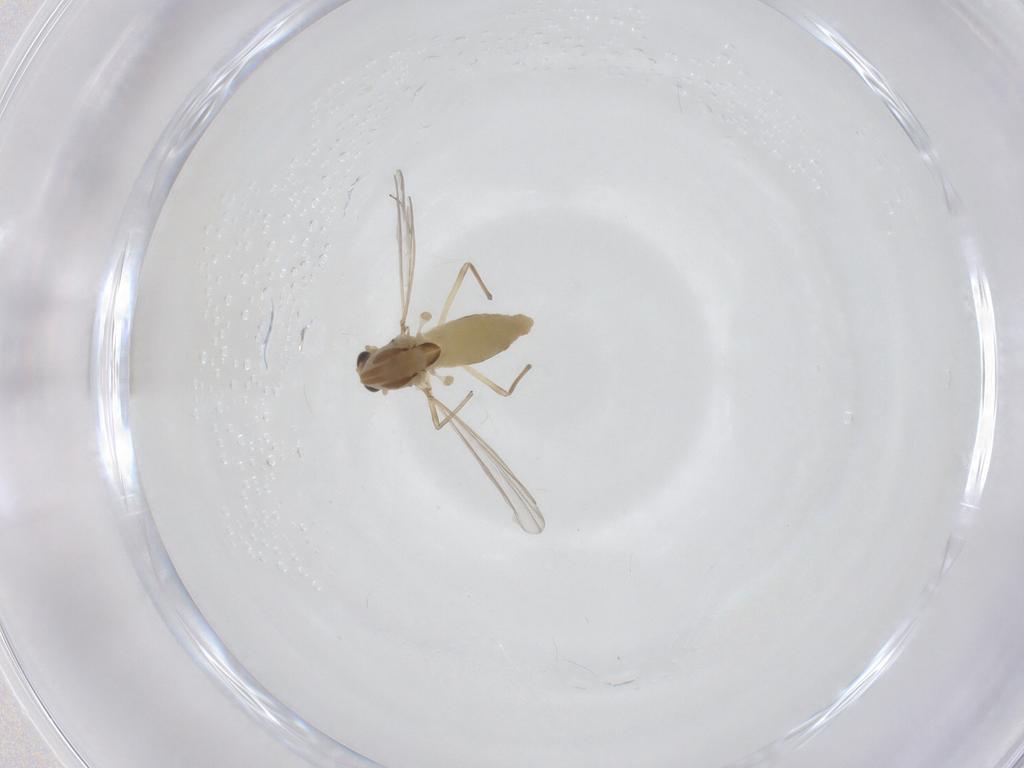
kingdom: Animalia
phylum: Arthropoda
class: Insecta
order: Diptera
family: Chironomidae
